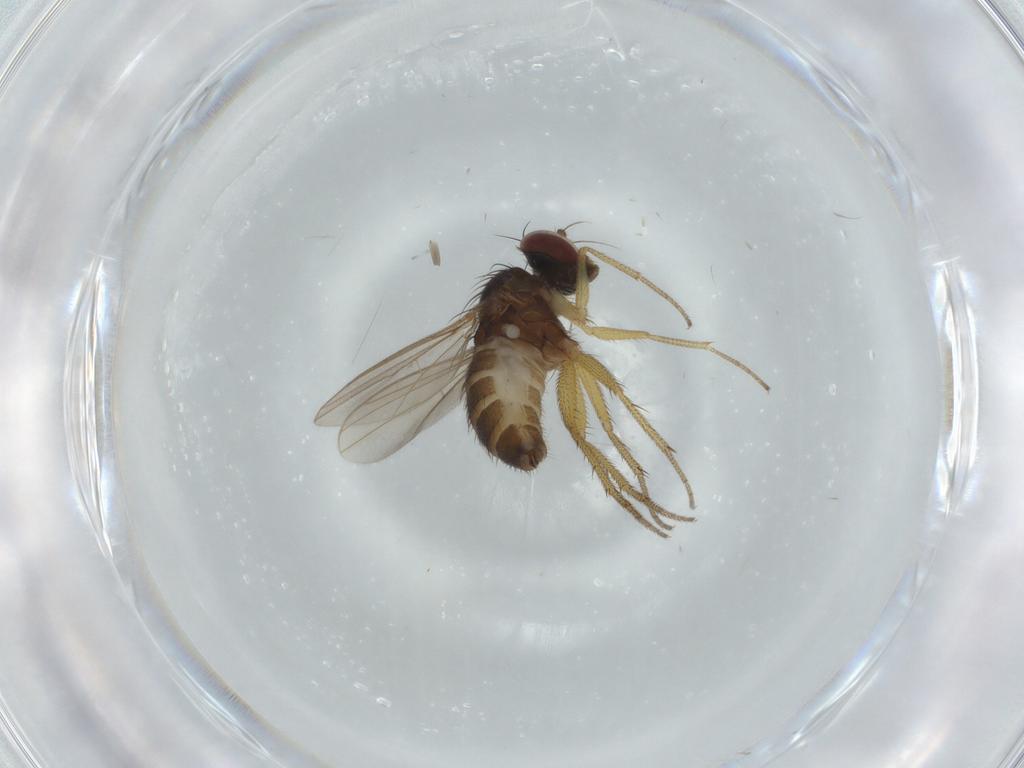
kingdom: Animalia
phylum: Arthropoda
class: Insecta
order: Diptera
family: Dolichopodidae
